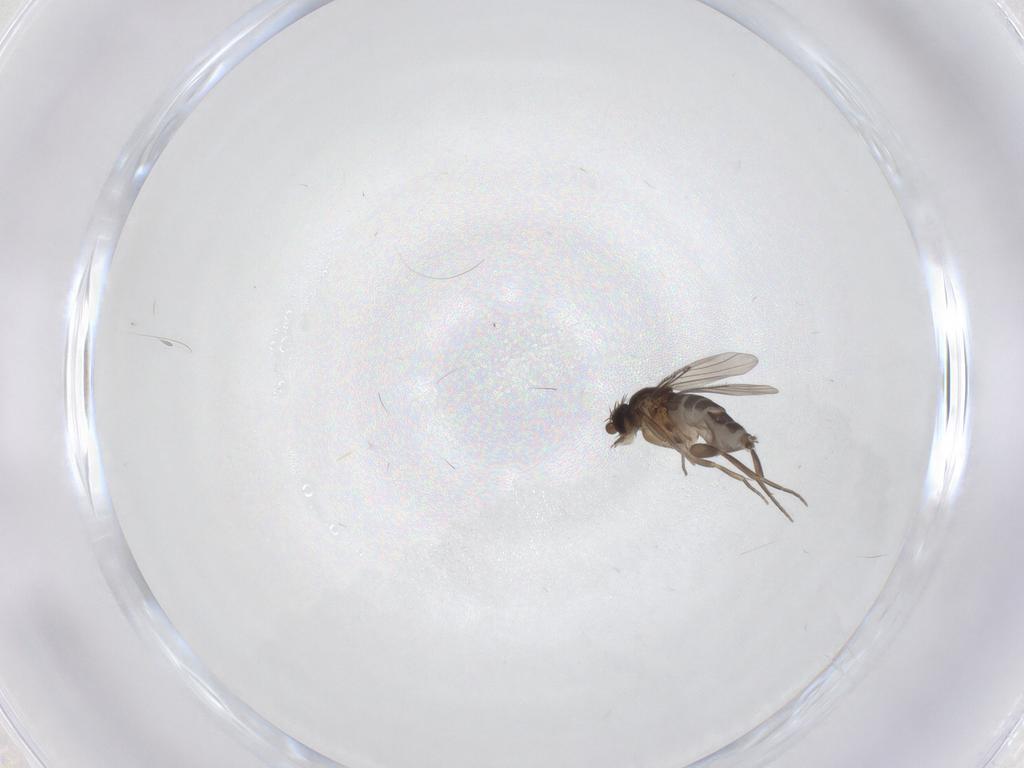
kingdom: Animalia
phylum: Arthropoda
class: Insecta
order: Diptera
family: Phoridae
